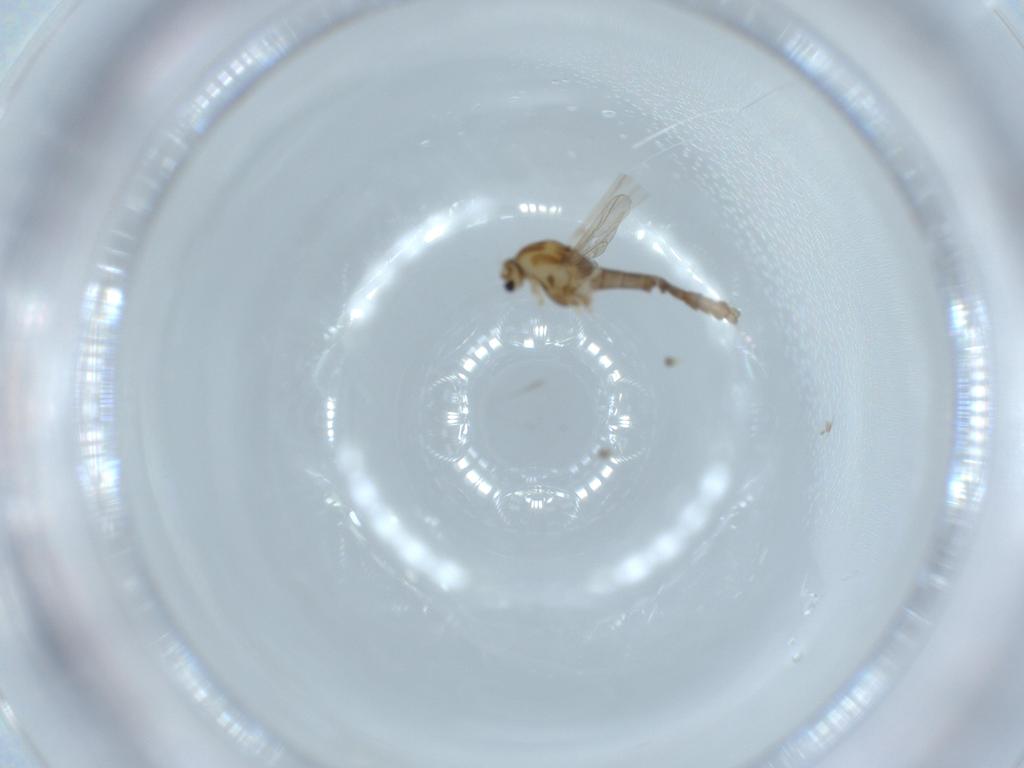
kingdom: Animalia
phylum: Arthropoda
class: Insecta
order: Diptera
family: Chironomidae
